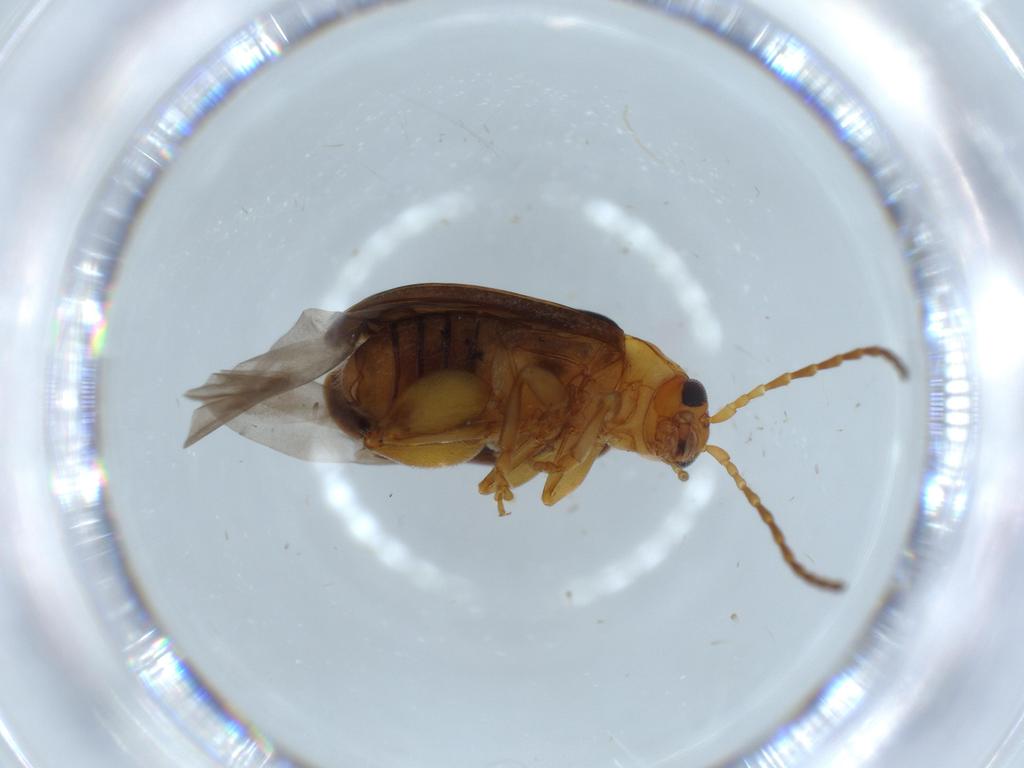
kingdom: Animalia
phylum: Arthropoda
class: Insecta
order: Coleoptera
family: Chrysomelidae
